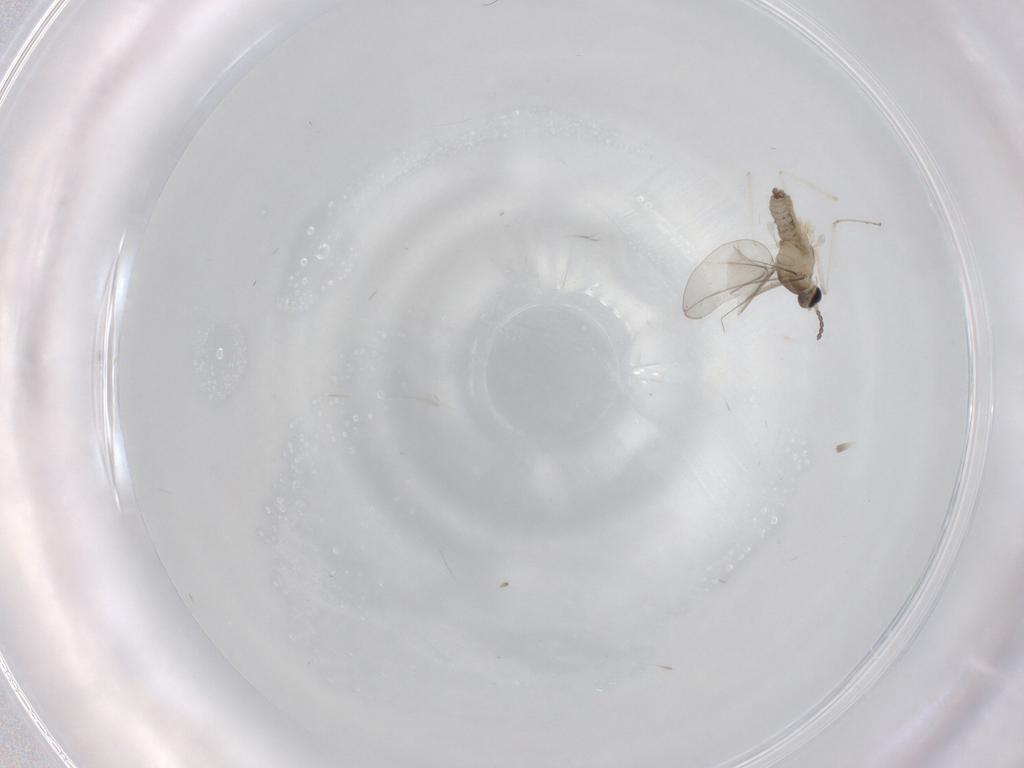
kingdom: Animalia
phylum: Arthropoda
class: Insecta
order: Diptera
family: Cecidomyiidae
